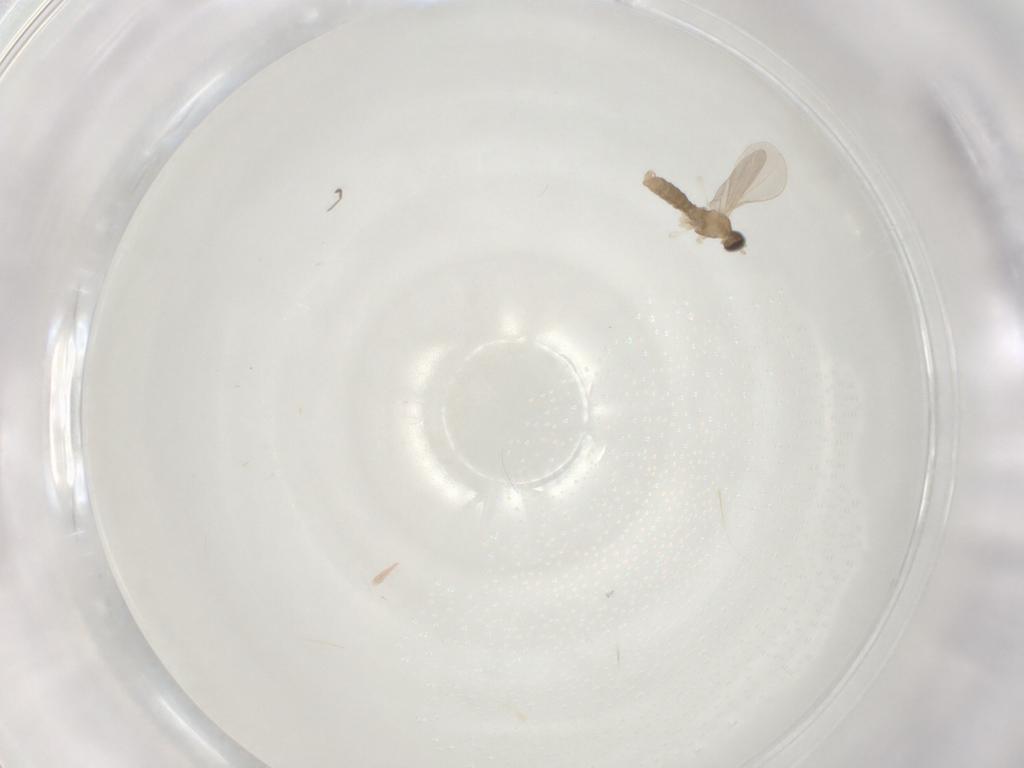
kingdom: Animalia
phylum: Arthropoda
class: Insecta
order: Diptera
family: Cecidomyiidae
